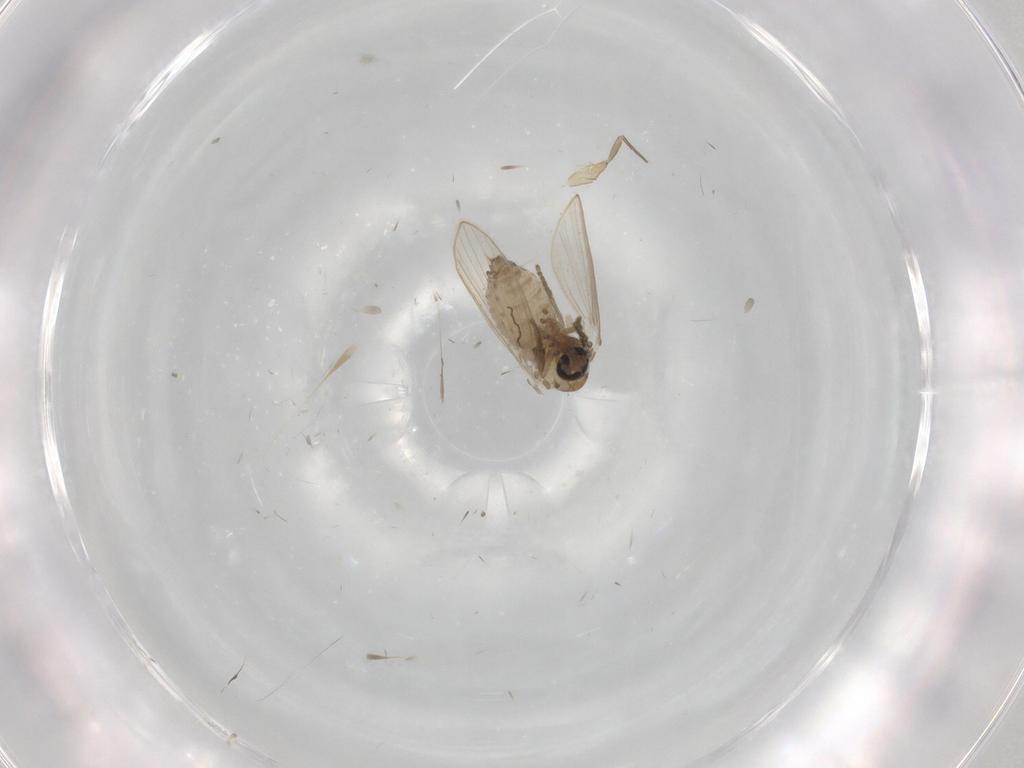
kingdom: Animalia
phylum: Arthropoda
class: Insecta
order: Diptera
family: Psychodidae
